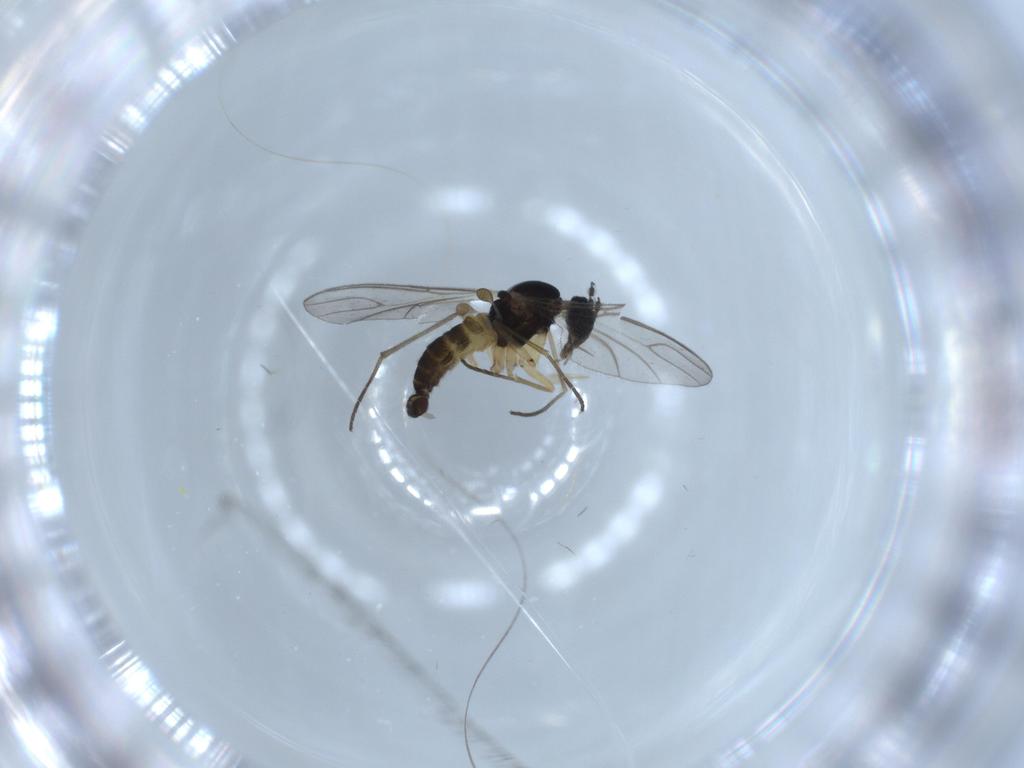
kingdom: Animalia
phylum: Arthropoda
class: Insecta
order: Diptera
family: Sciaridae
